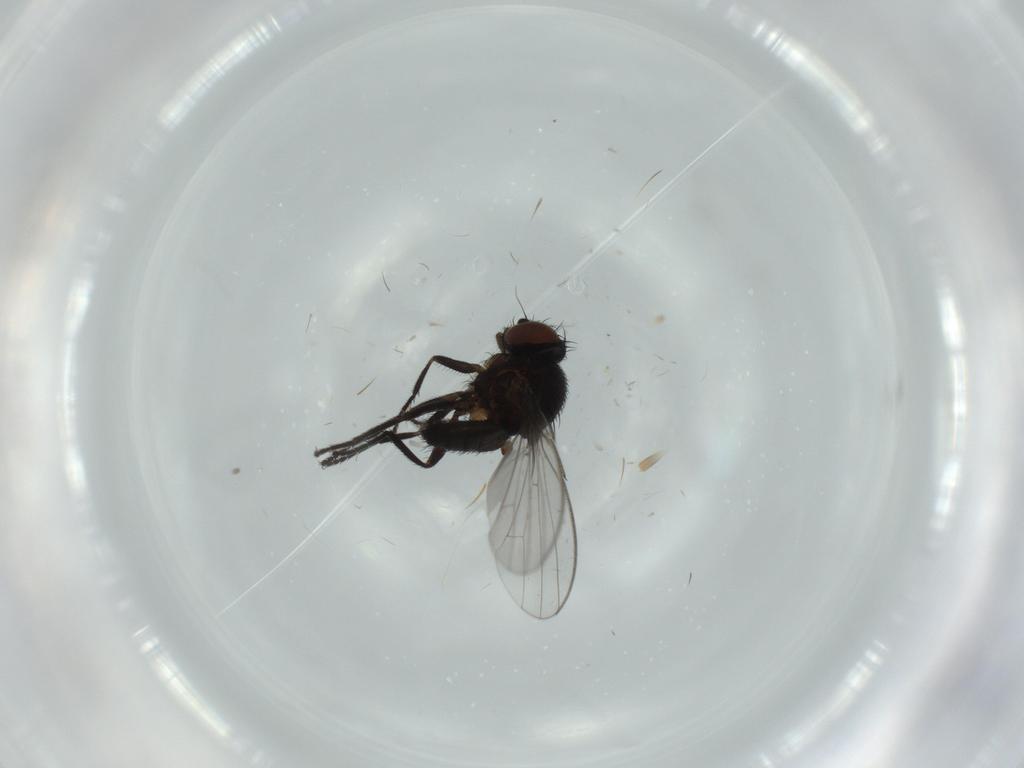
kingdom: Animalia
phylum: Arthropoda
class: Insecta
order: Diptera
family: Milichiidae
